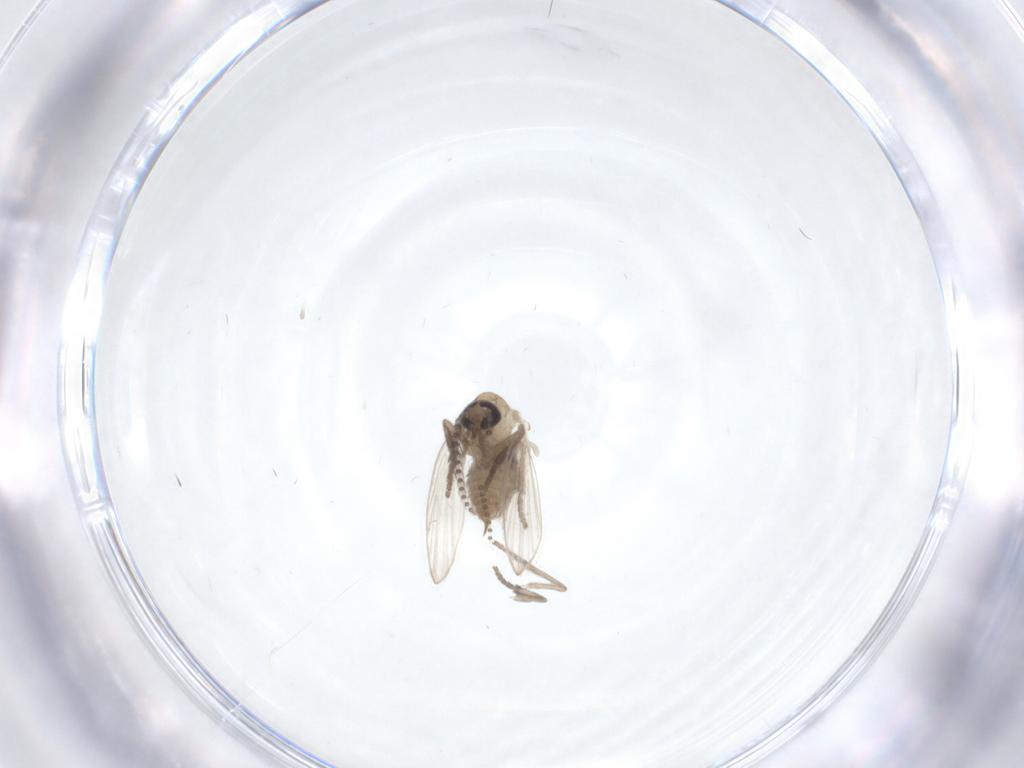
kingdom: Animalia
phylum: Arthropoda
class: Insecta
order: Diptera
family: Psychodidae
